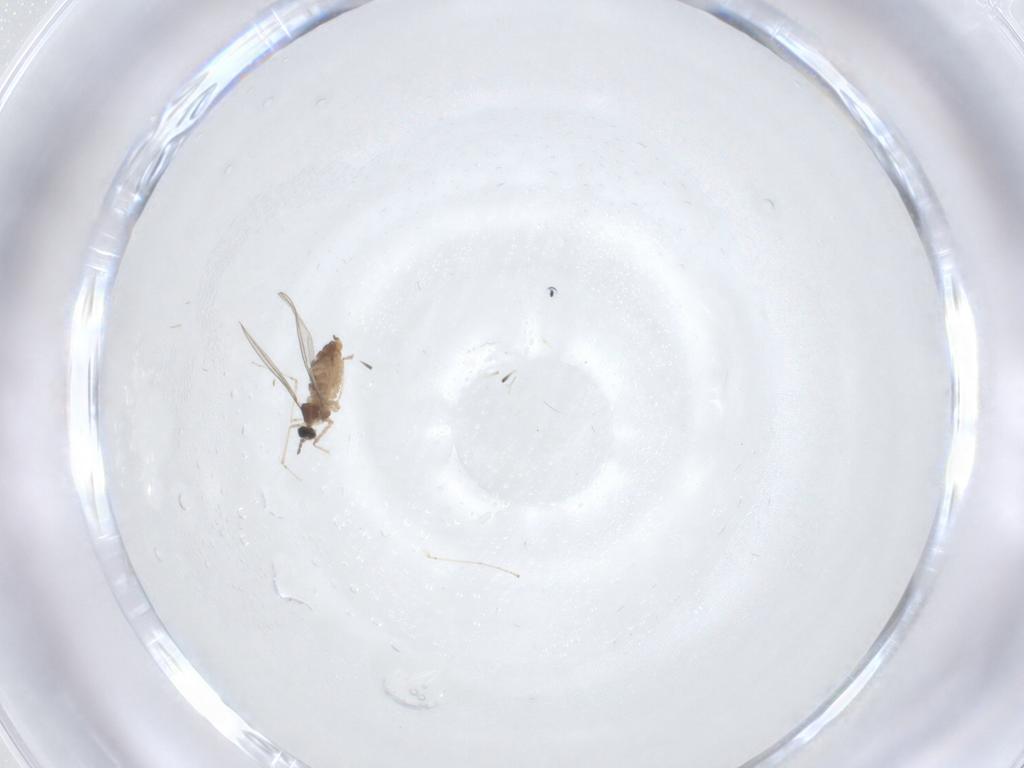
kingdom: Animalia
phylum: Arthropoda
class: Insecta
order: Diptera
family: Cecidomyiidae
